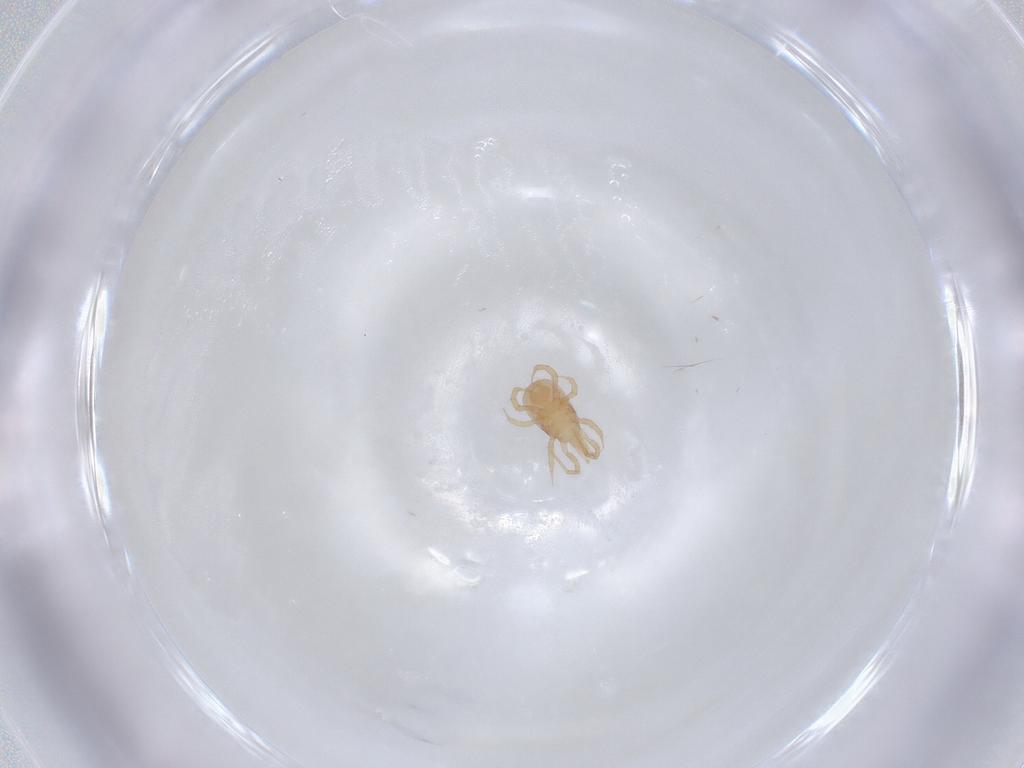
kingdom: Animalia
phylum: Arthropoda
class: Arachnida
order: Mesostigmata
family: Blattisociidae
